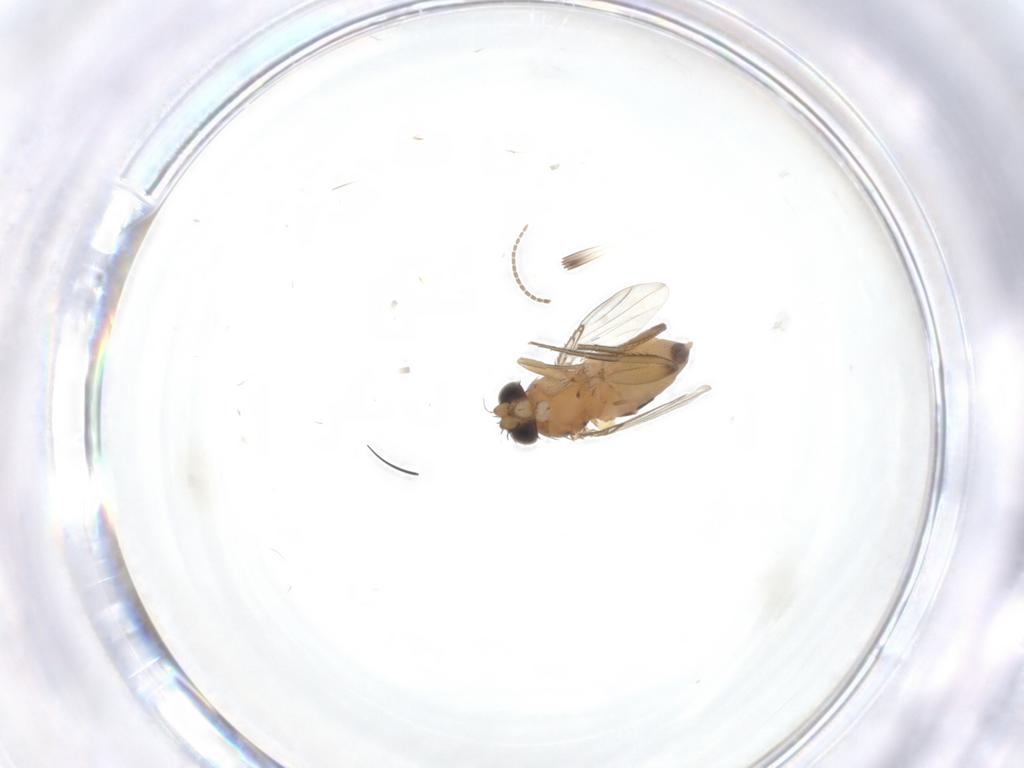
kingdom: Animalia
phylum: Arthropoda
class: Insecta
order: Diptera
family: Phoridae
